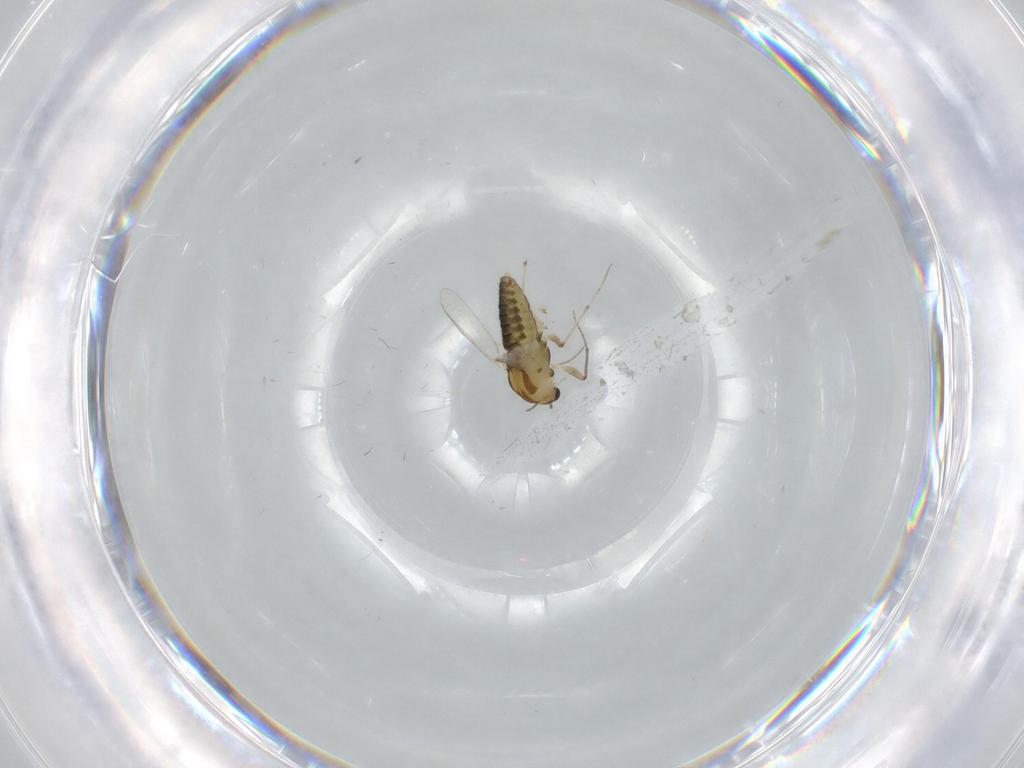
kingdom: Animalia
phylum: Arthropoda
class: Insecta
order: Diptera
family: Chironomidae
